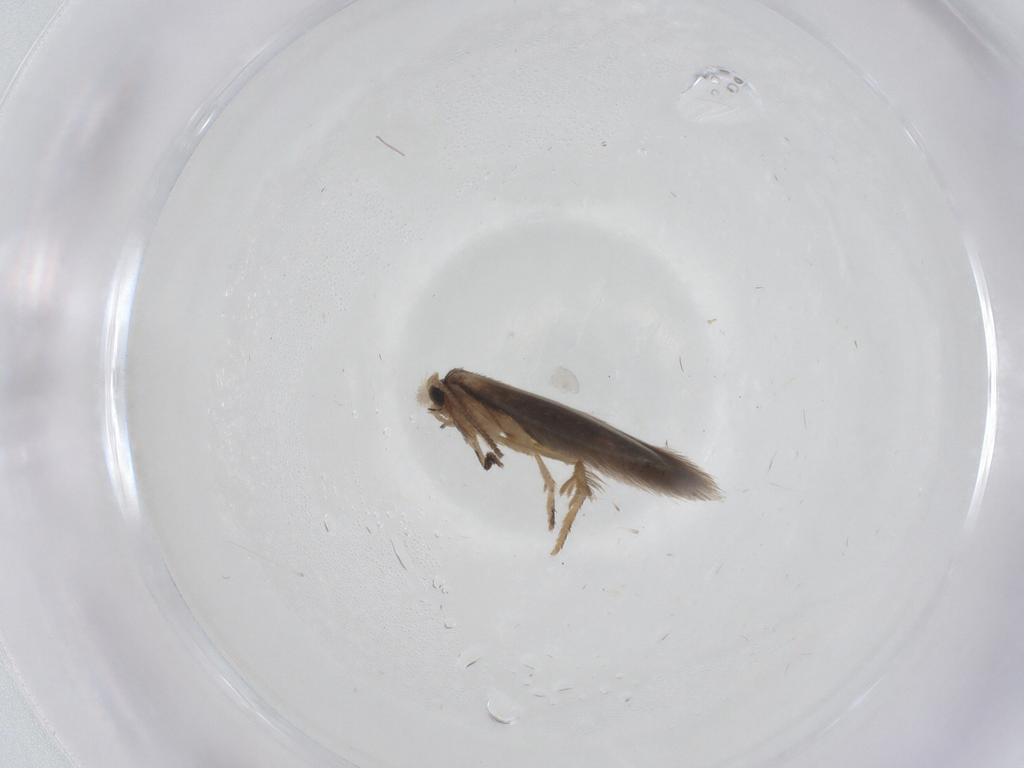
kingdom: Animalia
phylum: Arthropoda
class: Insecta
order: Lepidoptera
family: Nepticulidae
